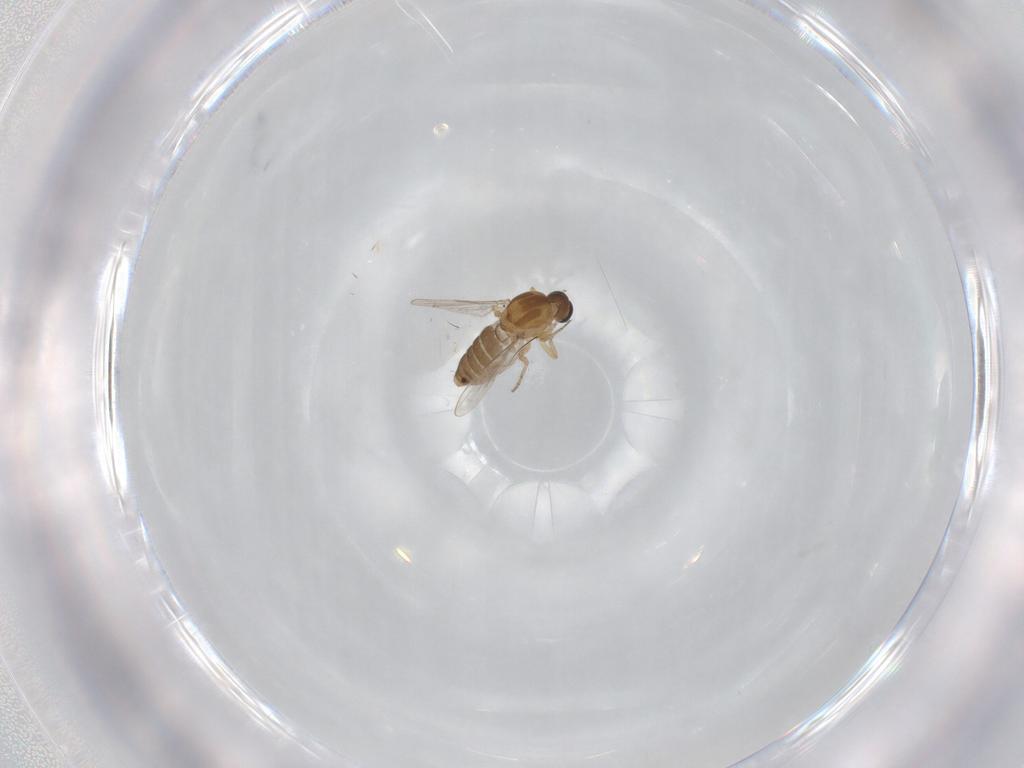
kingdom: Animalia
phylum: Arthropoda
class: Insecta
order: Diptera
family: Ceratopogonidae
